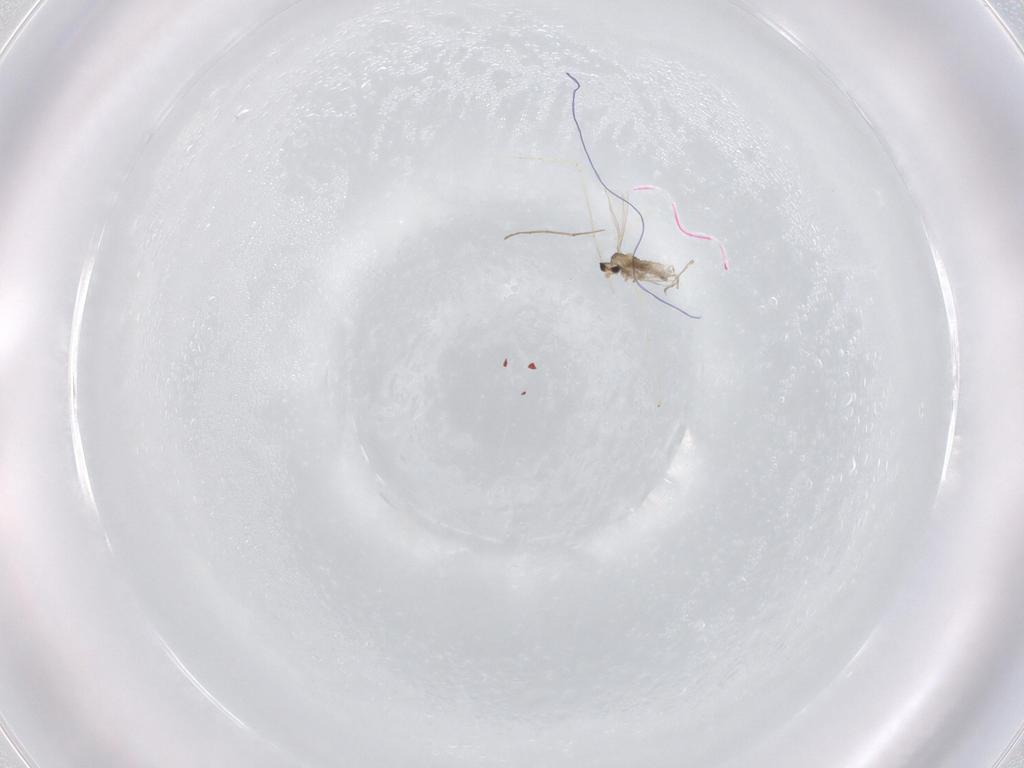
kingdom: Animalia
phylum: Arthropoda
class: Insecta
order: Diptera
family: Cecidomyiidae
